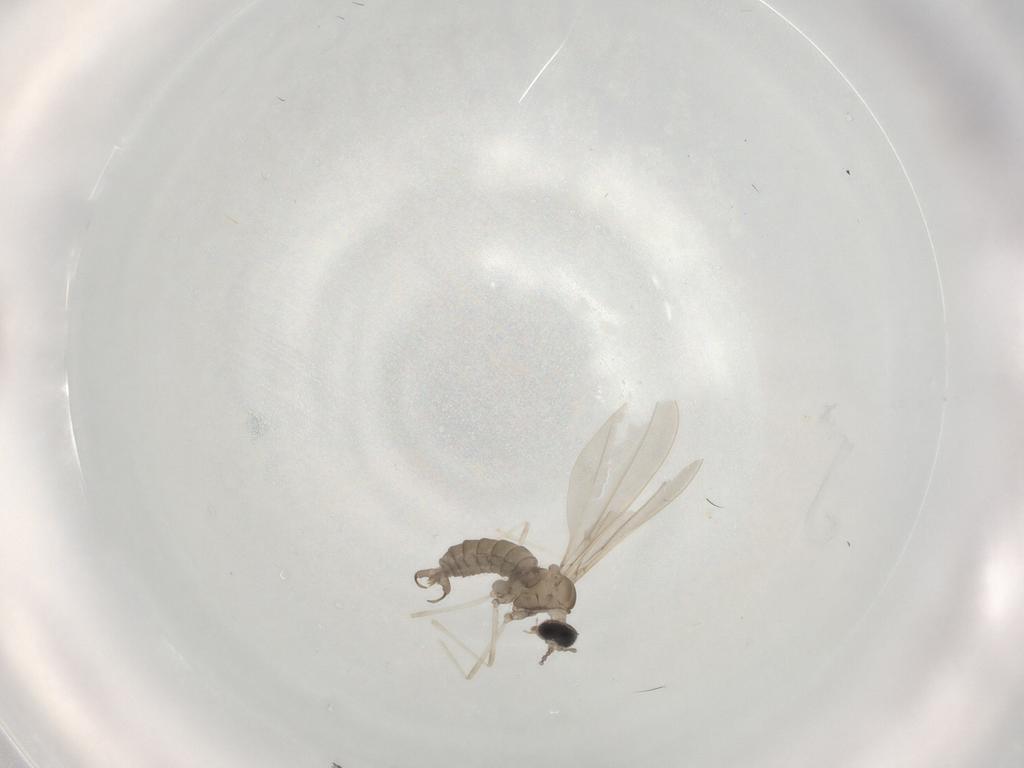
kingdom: Animalia
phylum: Arthropoda
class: Insecta
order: Diptera
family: Cecidomyiidae
